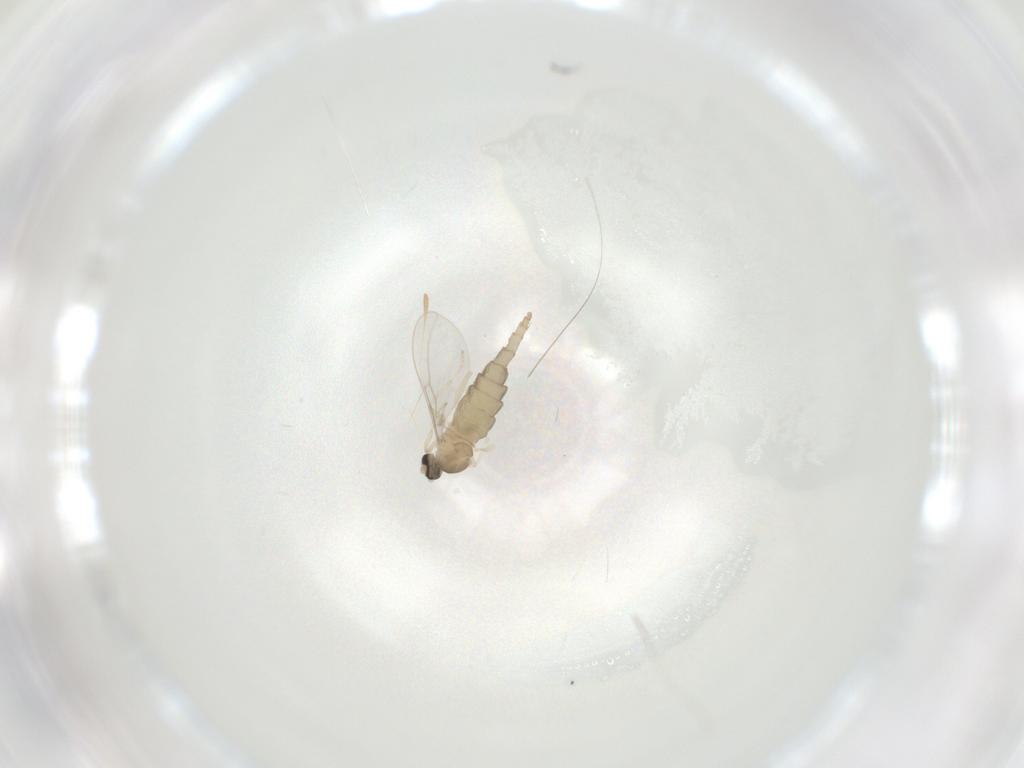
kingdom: Animalia
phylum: Arthropoda
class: Insecta
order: Diptera
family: Cecidomyiidae
